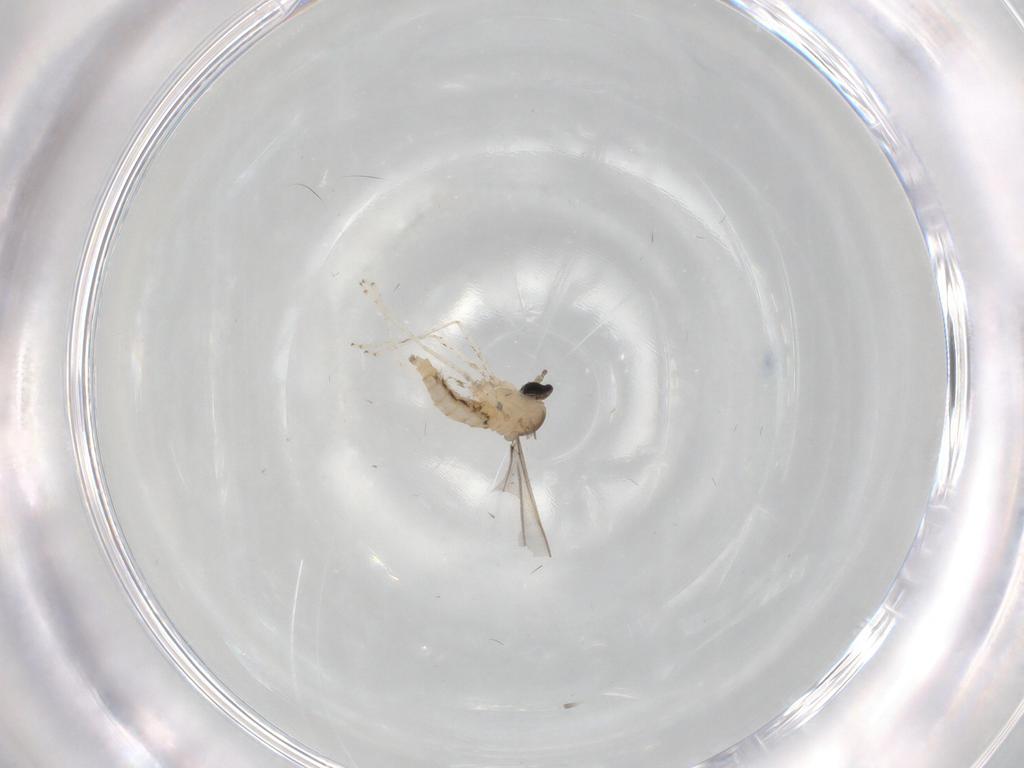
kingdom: Animalia
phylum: Arthropoda
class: Insecta
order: Diptera
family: Cecidomyiidae
